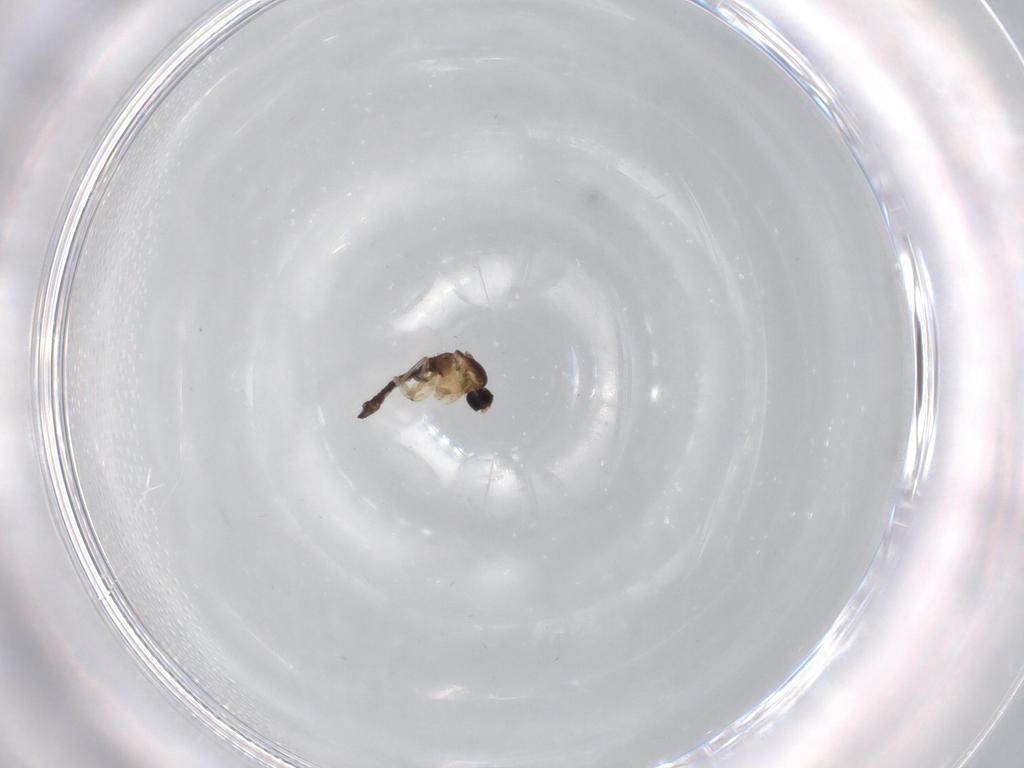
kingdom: Animalia
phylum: Arthropoda
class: Insecta
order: Diptera
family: Sciaridae
